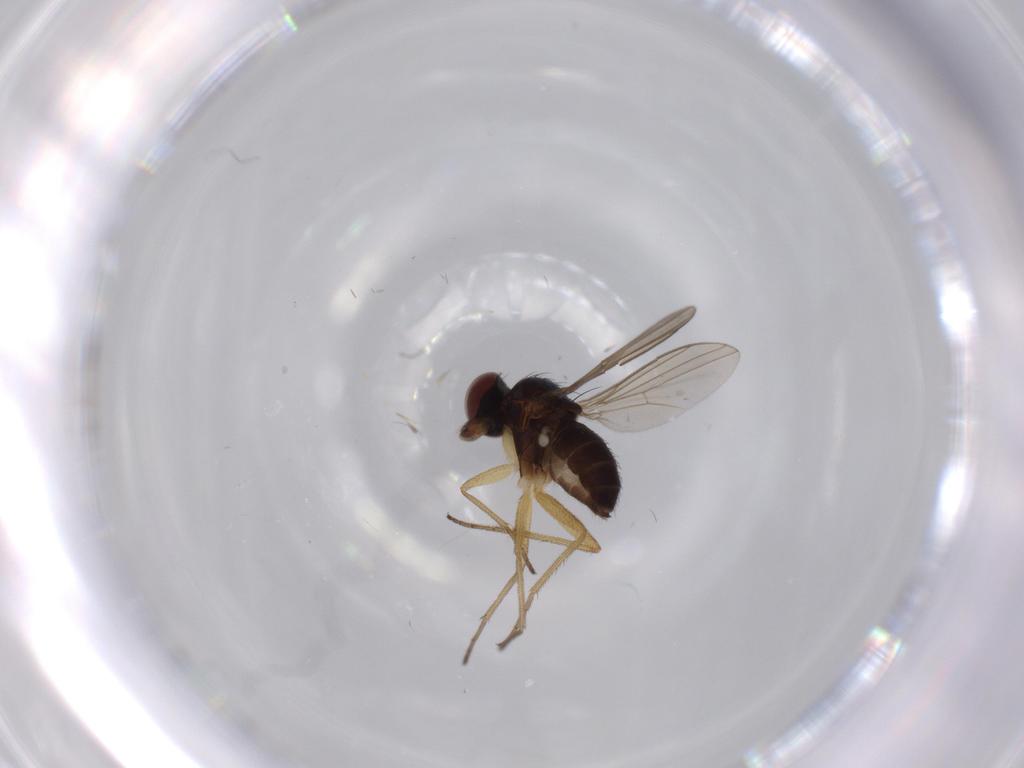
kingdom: Animalia
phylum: Arthropoda
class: Insecta
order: Diptera
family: Dolichopodidae
